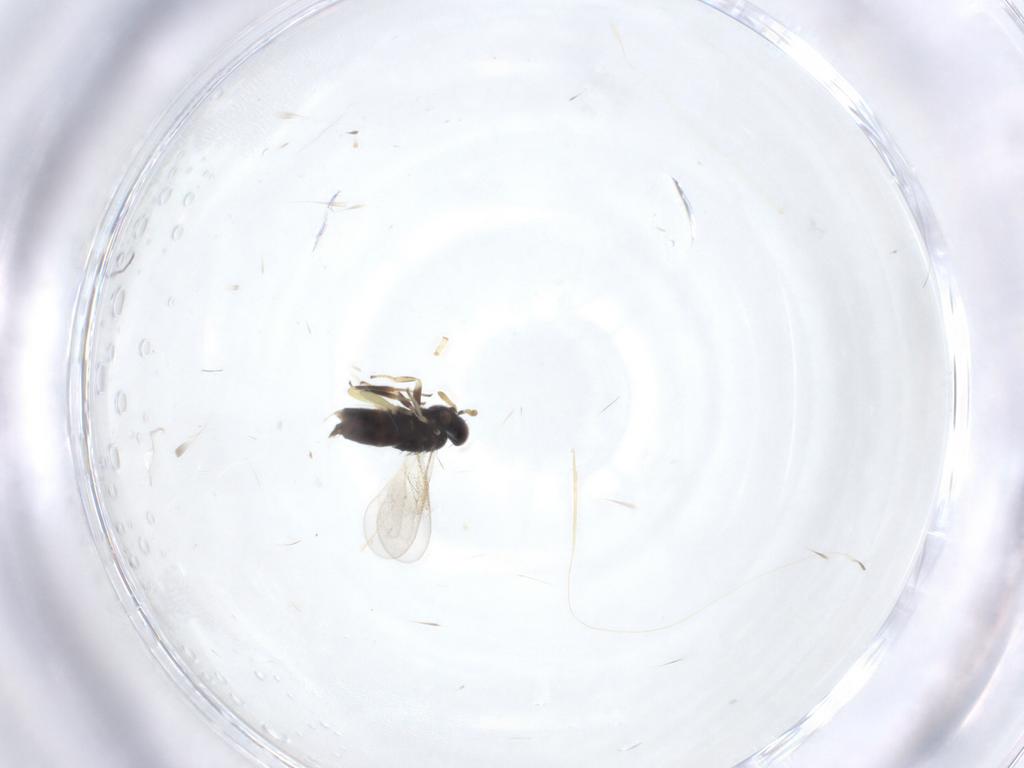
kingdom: Animalia
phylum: Arthropoda
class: Insecta
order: Hymenoptera
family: Aphelinidae
